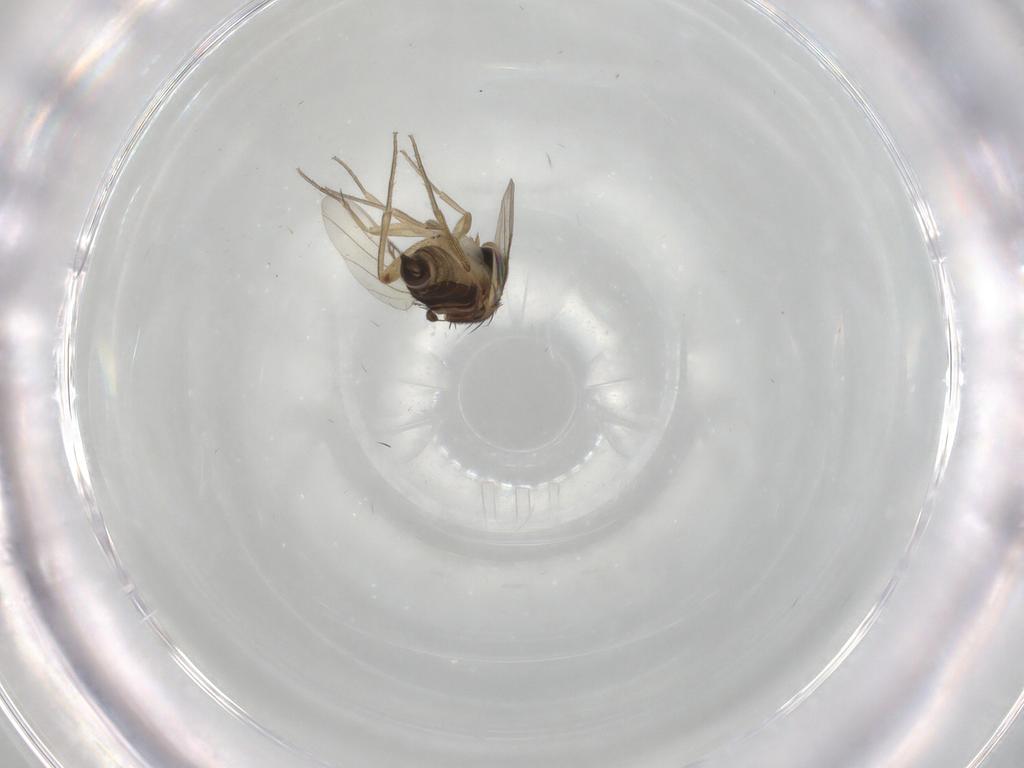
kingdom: Animalia
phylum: Arthropoda
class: Insecta
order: Diptera
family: Phoridae
